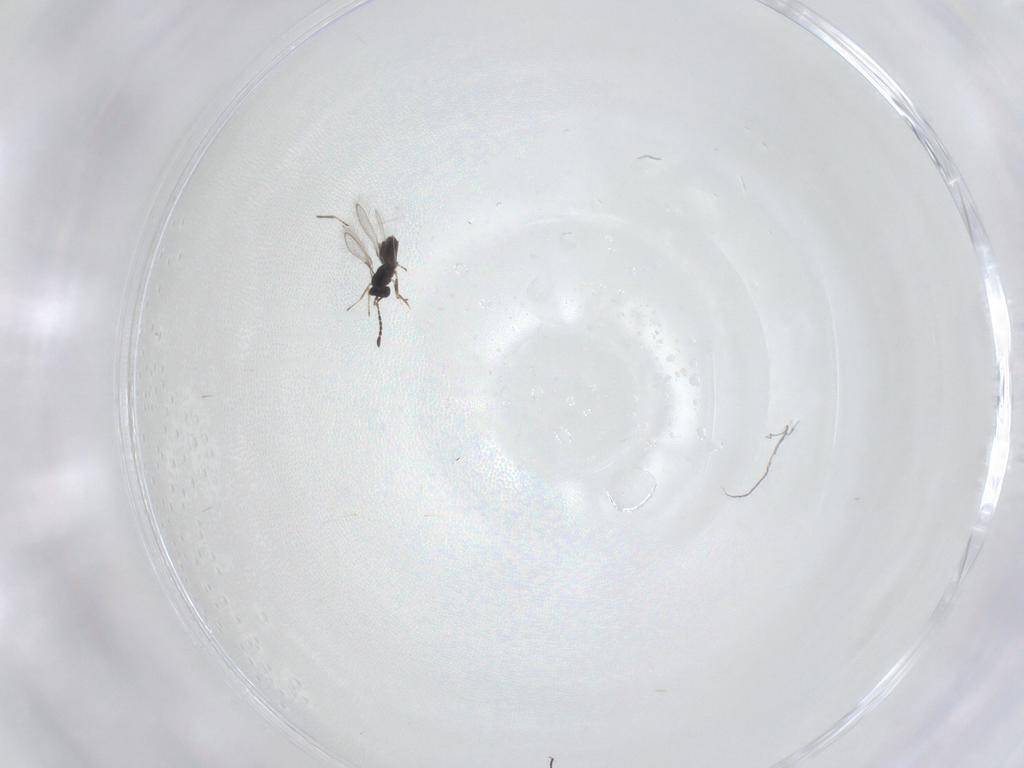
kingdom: Animalia
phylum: Arthropoda
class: Insecta
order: Hymenoptera
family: Mymaridae
